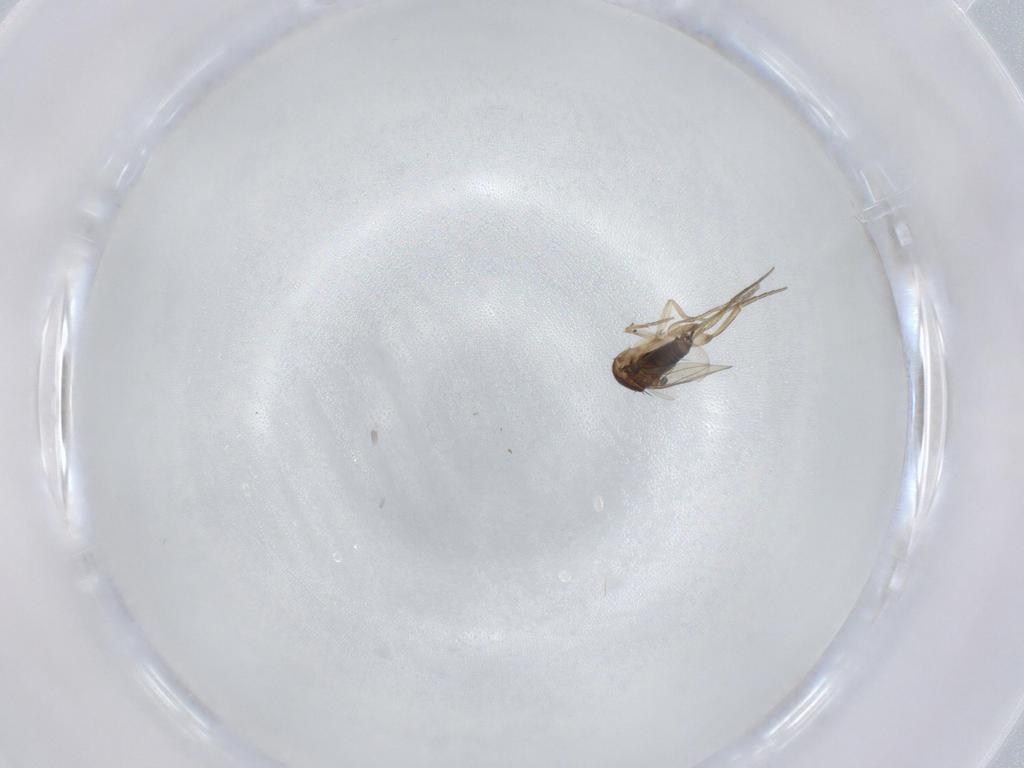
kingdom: Animalia
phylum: Arthropoda
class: Insecta
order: Diptera
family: Phoridae
